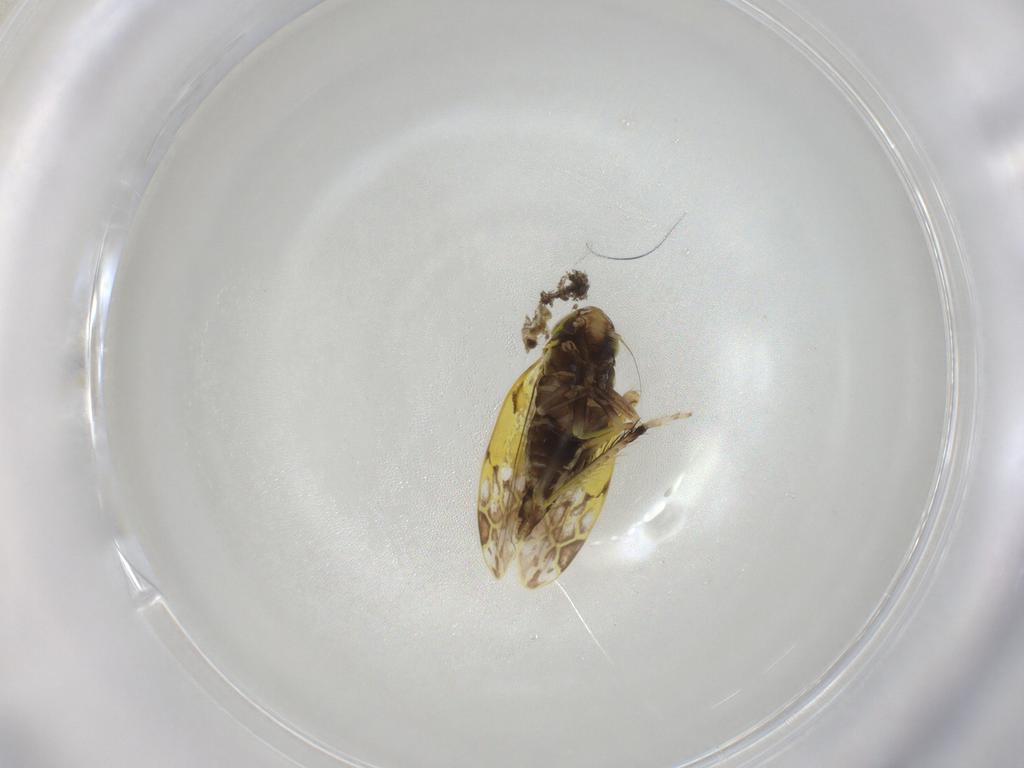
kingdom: Animalia
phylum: Arthropoda
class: Insecta
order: Hemiptera
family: Cicadellidae
